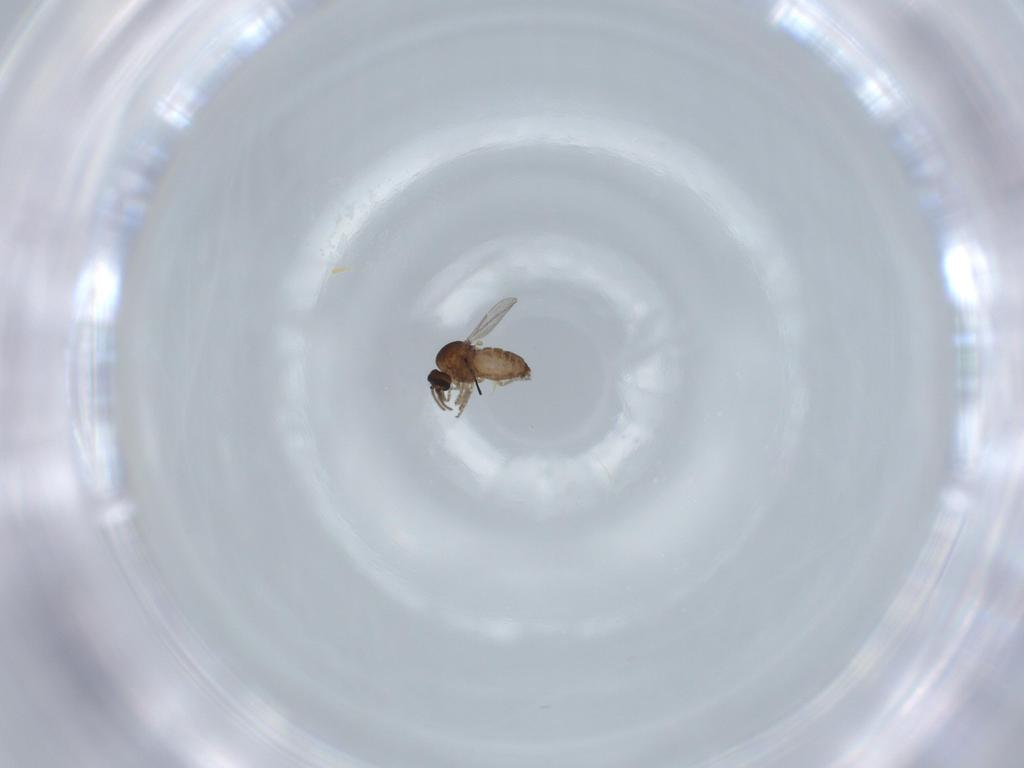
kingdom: Animalia
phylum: Arthropoda
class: Insecta
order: Diptera
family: Ceratopogonidae
